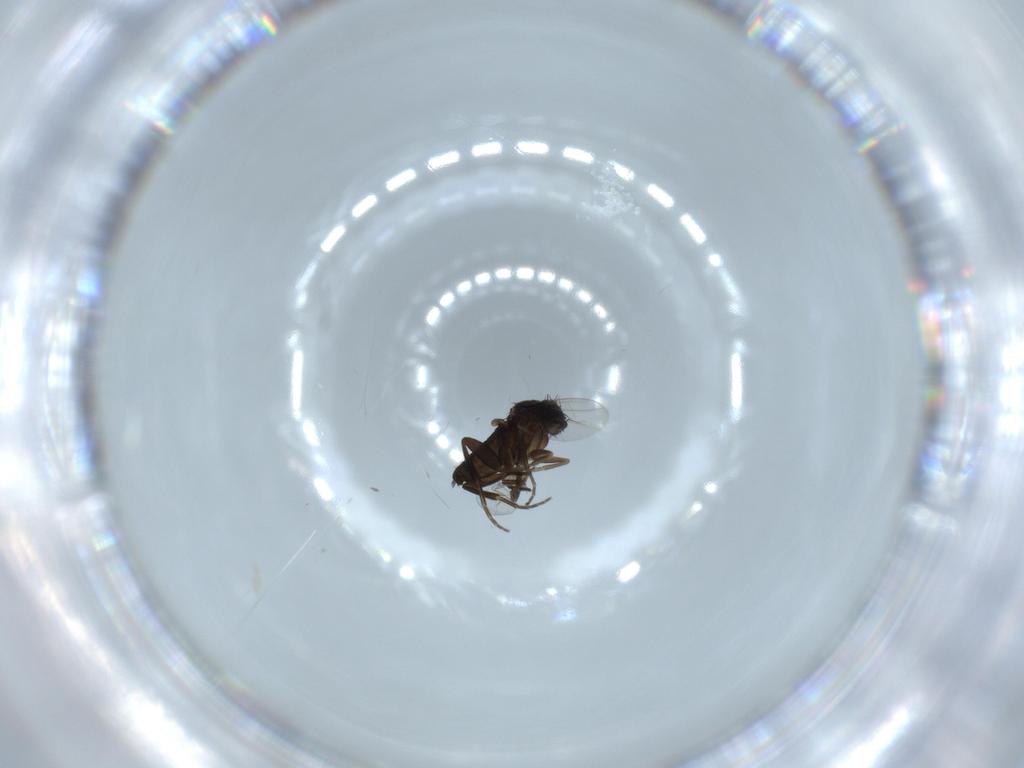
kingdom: Animalia
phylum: Arthropoda
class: Insecta
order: Diptera
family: Phoridae
